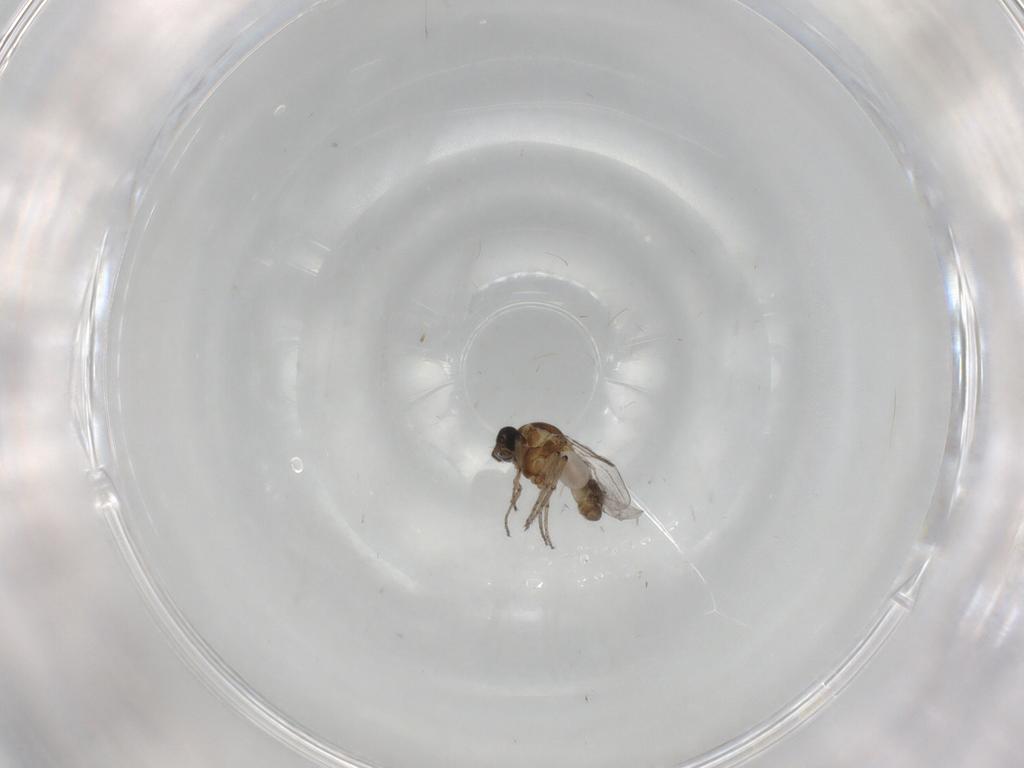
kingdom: Animalia
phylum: Arthropoda
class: Insecta
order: Diptera
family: Ceratopogonidae
